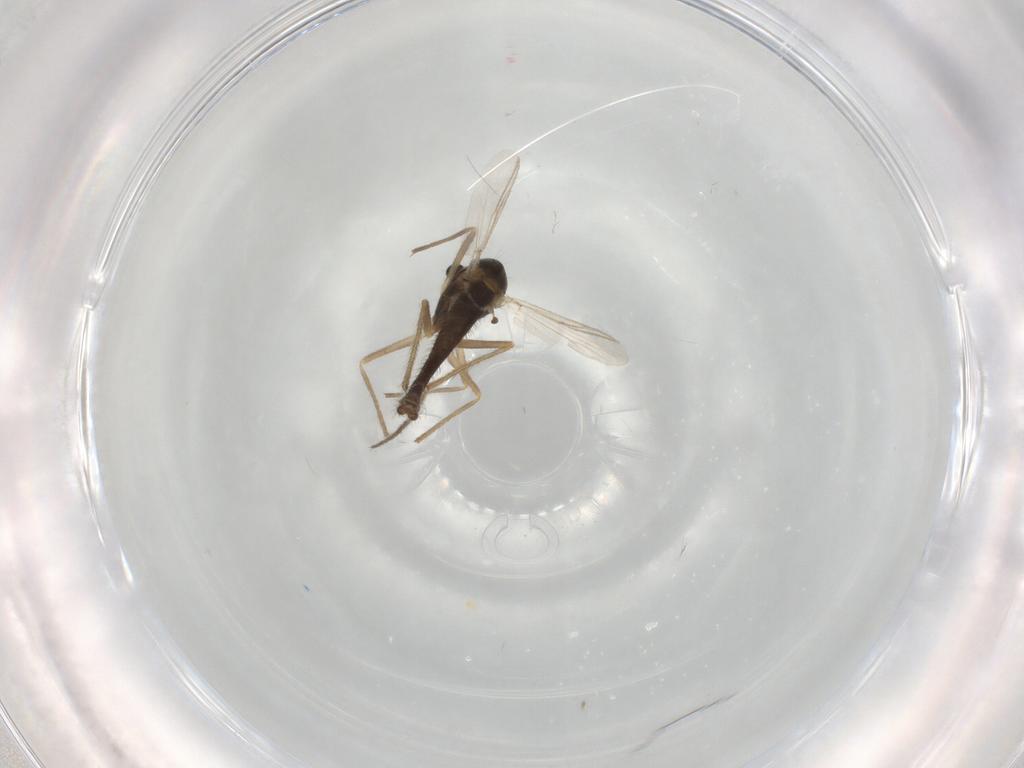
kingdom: Animalia
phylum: Arthropoda
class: Insecta
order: Diptera
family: Chironomidae
